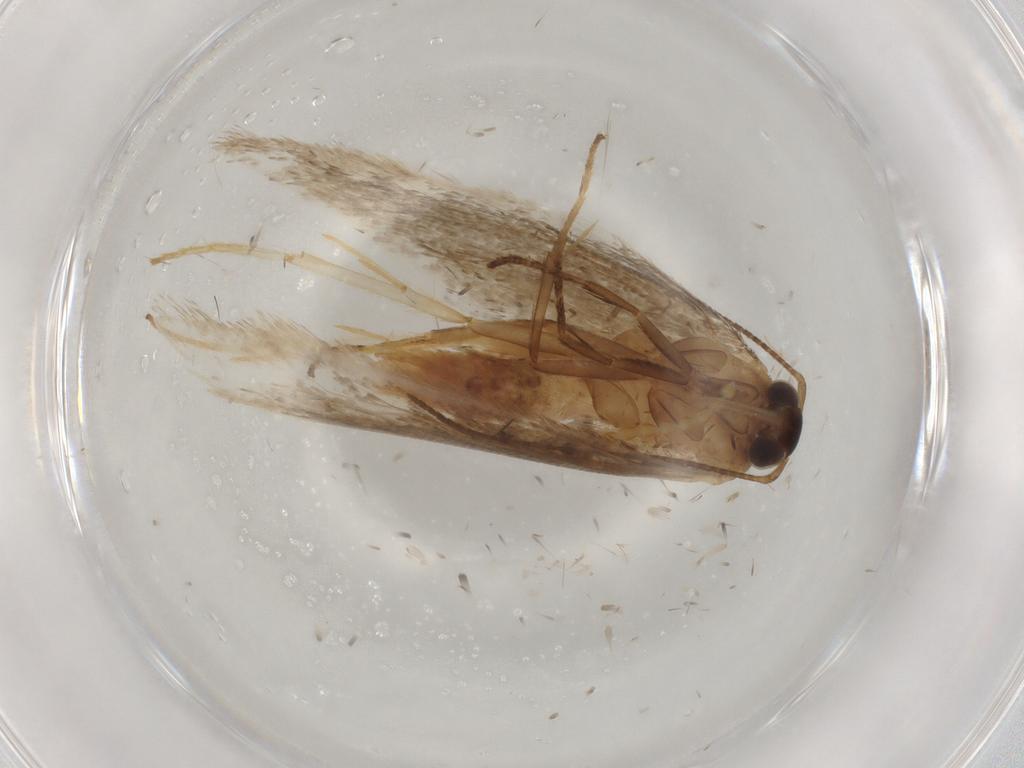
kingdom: Animalia
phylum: Arthropoda
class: Insecta
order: Lepidoptera
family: Oecophoridae
